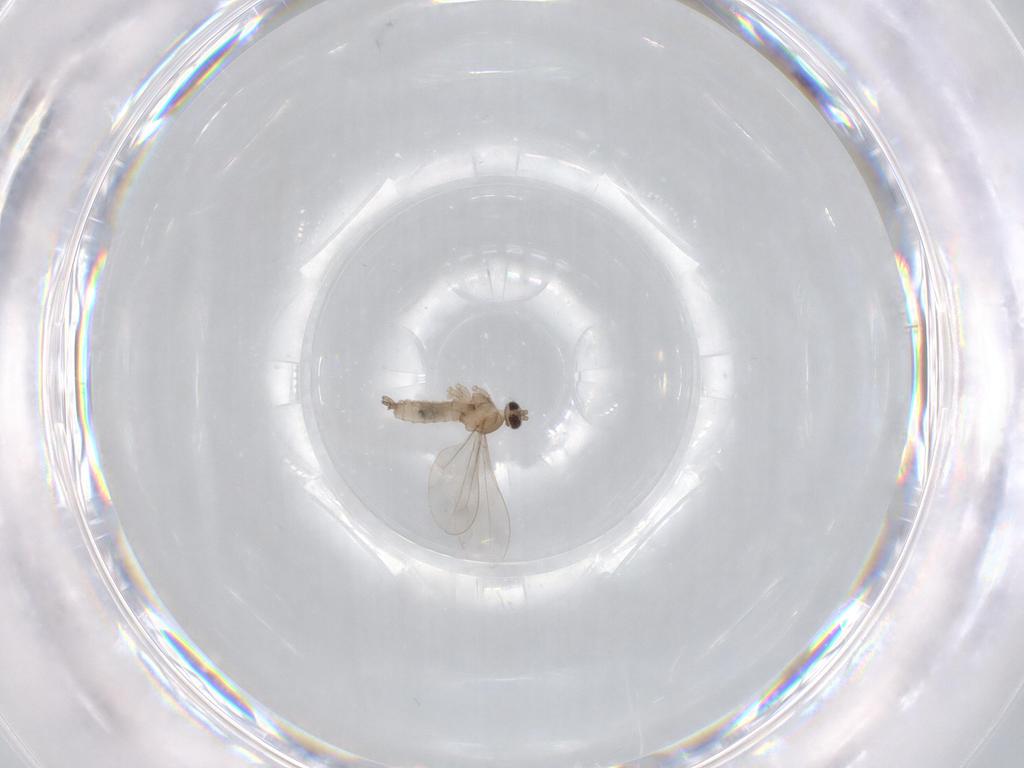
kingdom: Animalia
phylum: Arthropoda
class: Insecta
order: Diptera
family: Cecidomyiidae
